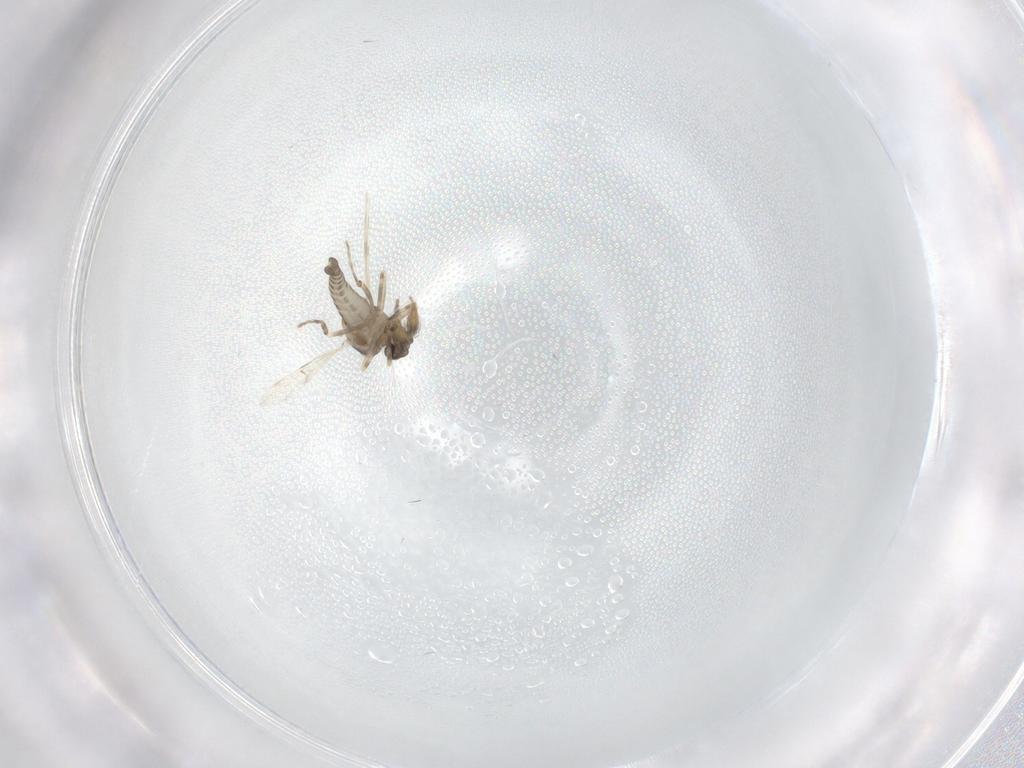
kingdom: Animalia
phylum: Arthropoda
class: Insecta
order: Diptera
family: Ceratopogonidae
